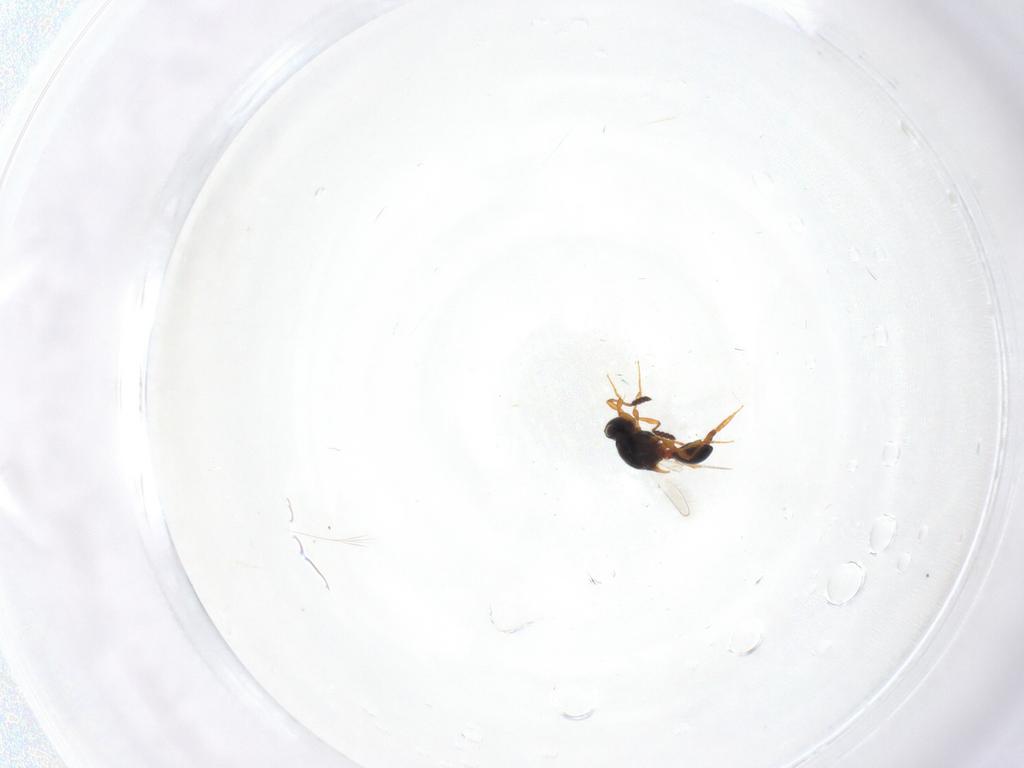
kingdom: Animalia
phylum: Arthropoda
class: Insecta
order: Hymenoptera
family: Platygastridae
